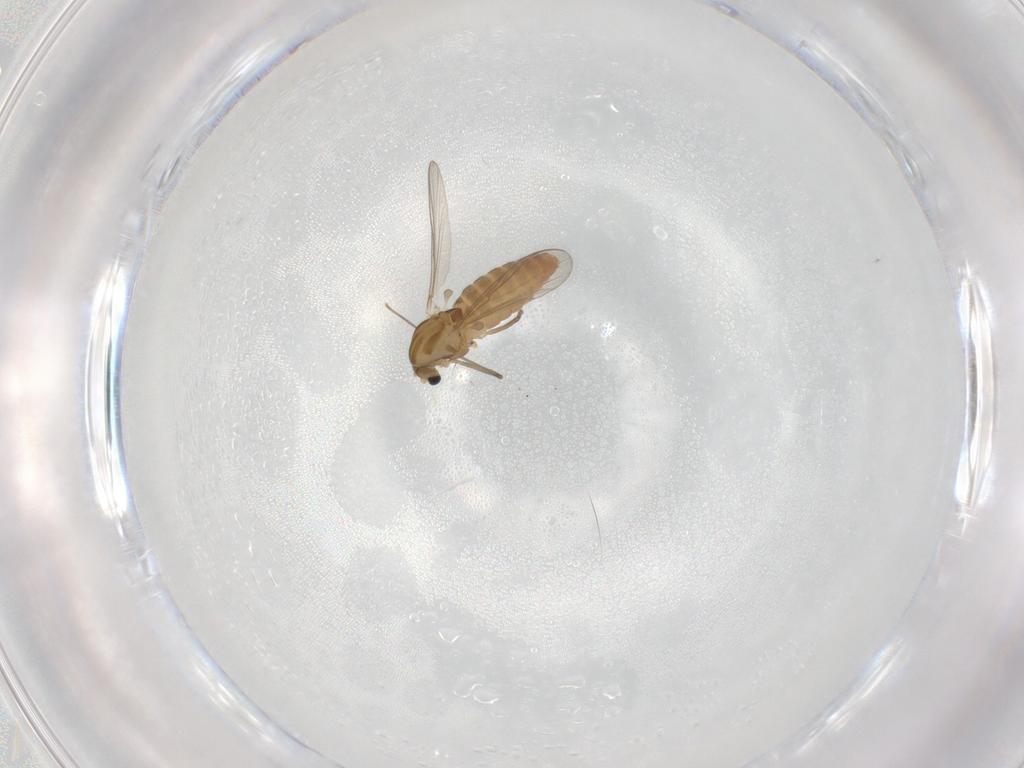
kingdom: Animalia
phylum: Arthropoda
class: Insecta
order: Diptera
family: Chironomidae
